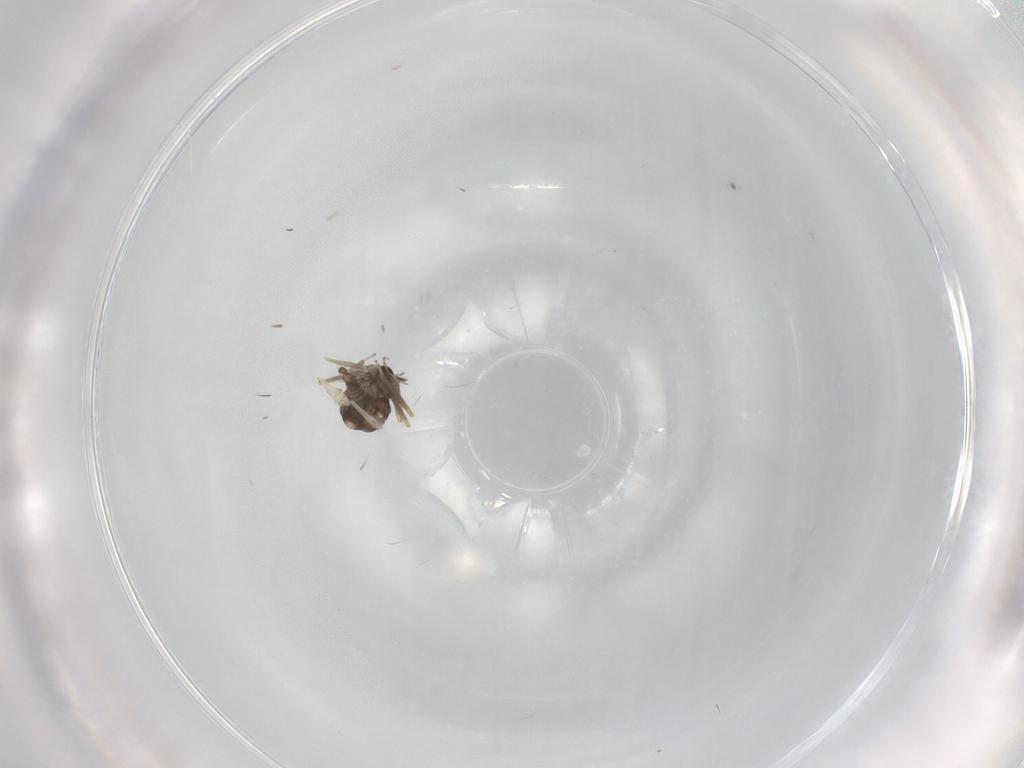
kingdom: Animalia
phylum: Arthropoda
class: Insecta
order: Diptera
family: Ceratopogonidae
